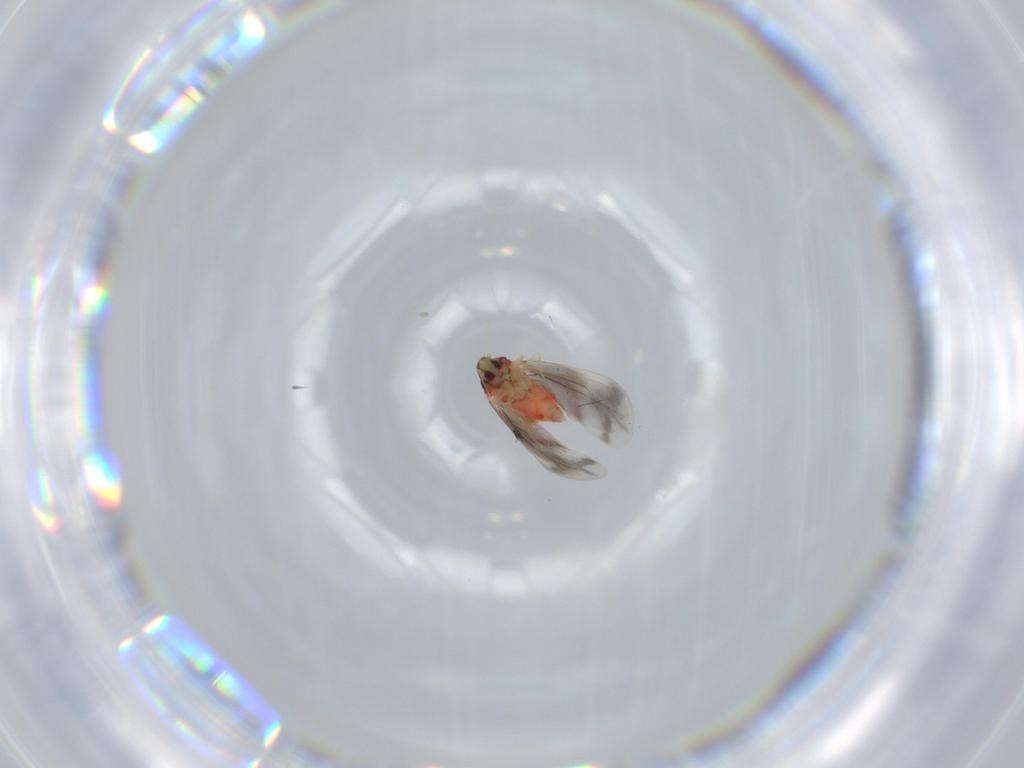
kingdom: Animalia
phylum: Arthropoda
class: Insecta
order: Hemiptera
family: Aleyrodidae
